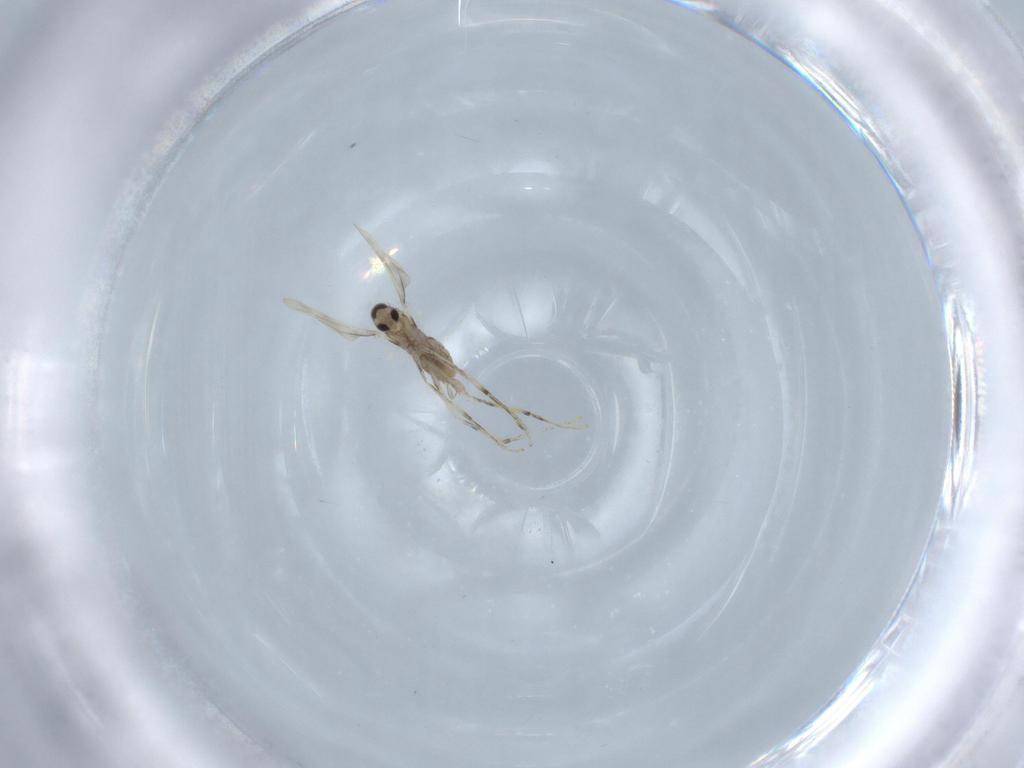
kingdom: Animalia
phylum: Arthropoda
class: Insecta
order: Diptera
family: Cecidomyiidae
